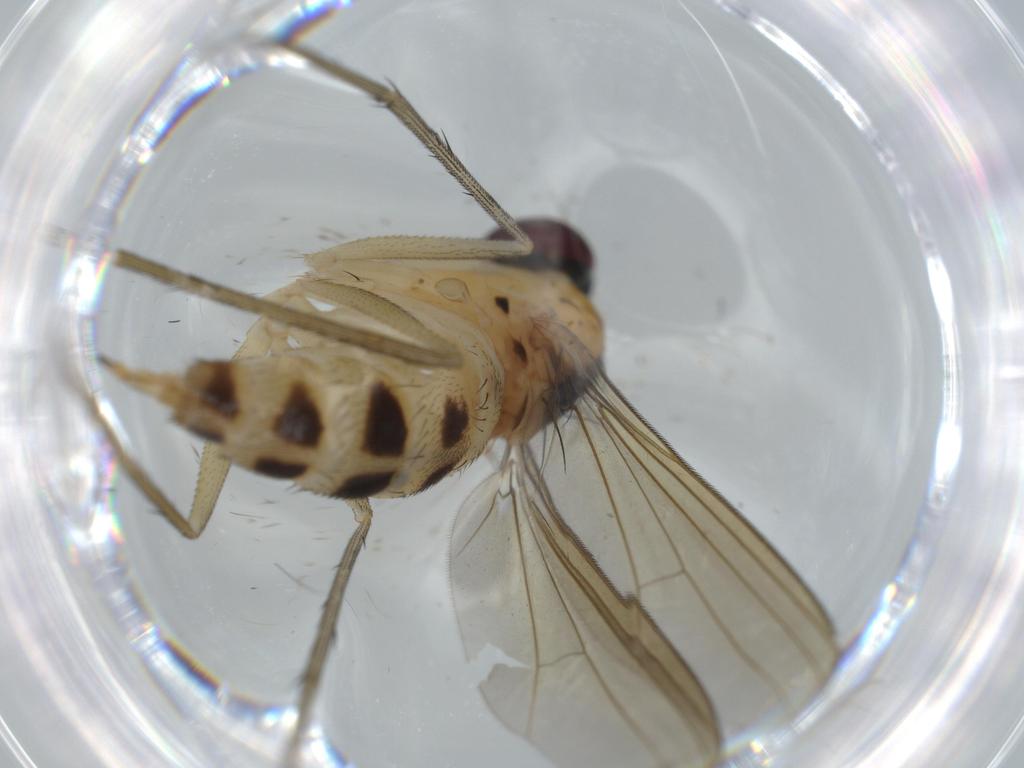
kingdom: Animalia
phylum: Arthropoda
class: Insecta
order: Diptera
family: Dolichopodidae
